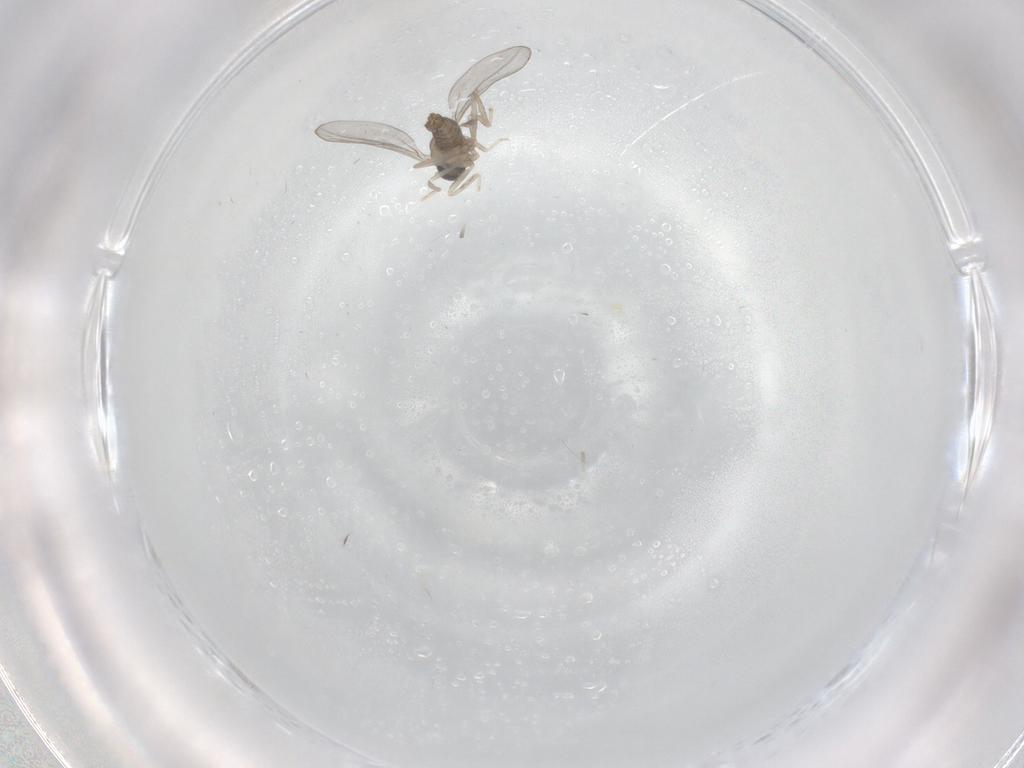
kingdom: Animalia
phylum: Arthropoda
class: Insecta
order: Diptera
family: Cecidomyiidae
